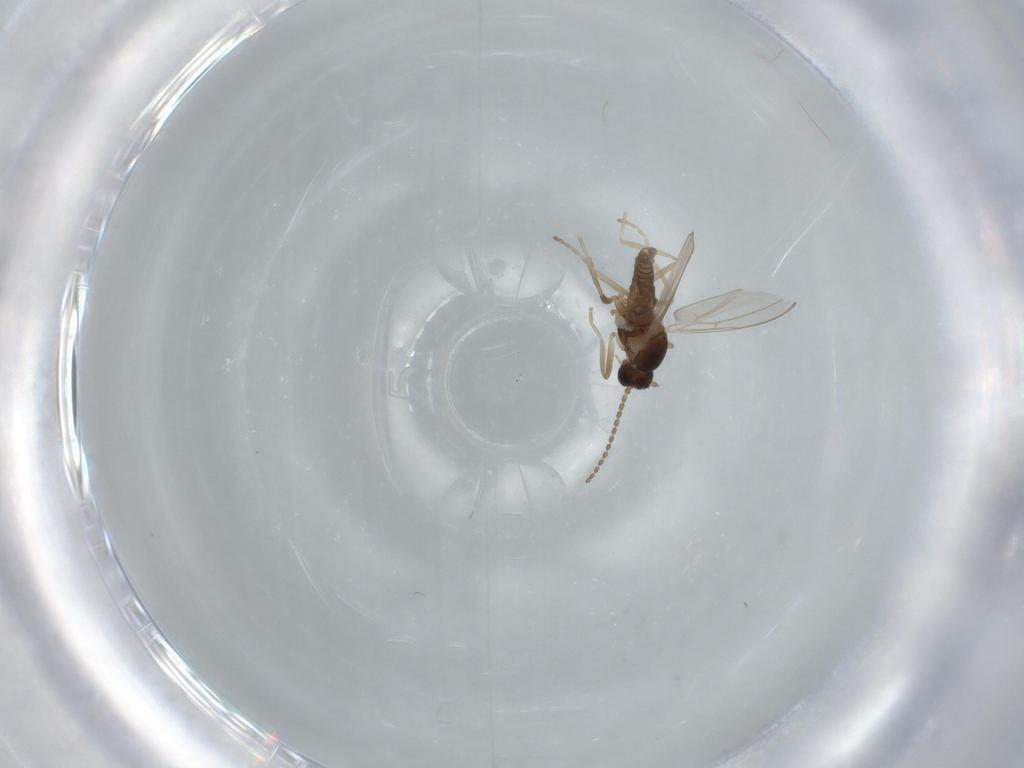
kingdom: Animalia
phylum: Arthropoda
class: Insecta
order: Diptera
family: Cecidomyiidae
